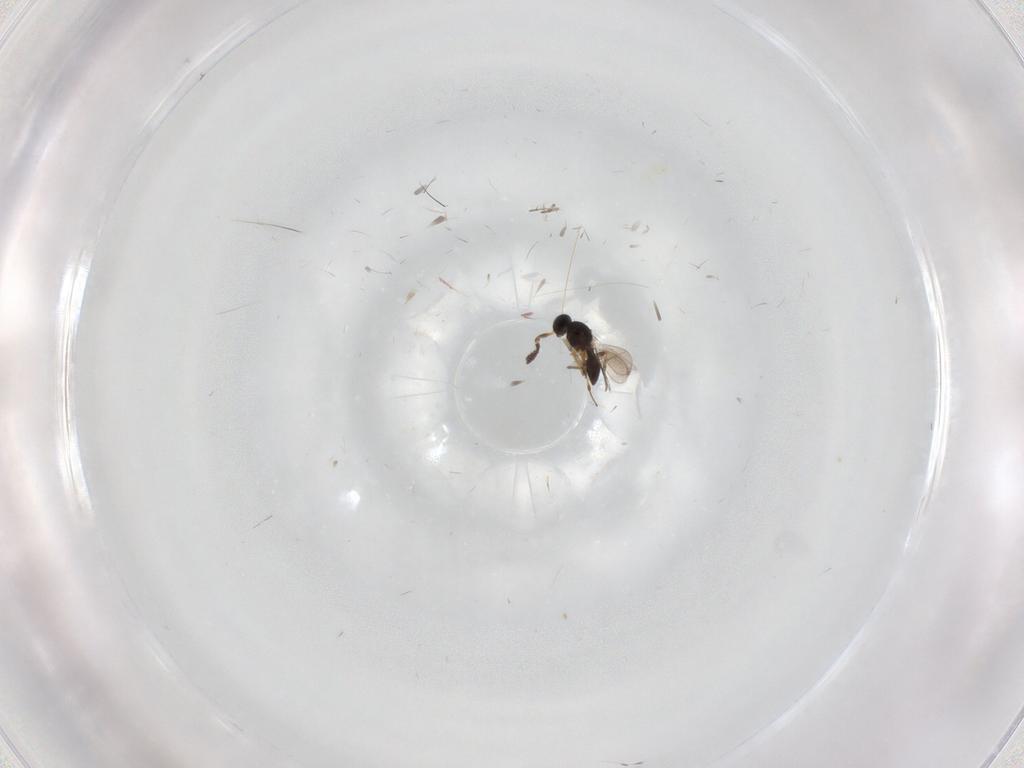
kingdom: Animalia
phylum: Arthropoda
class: Insecta
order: Hymenoptera
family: Platygastridae
